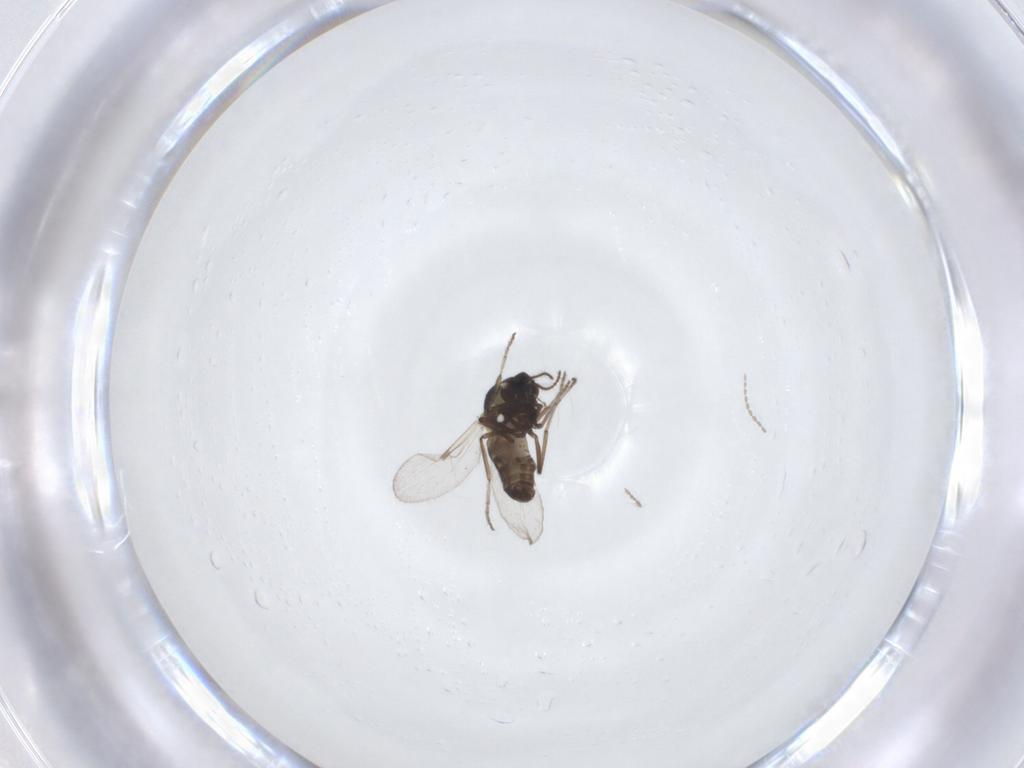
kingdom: Animalia
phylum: Arthropoda
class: Insecta
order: Diptera
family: Ceratopogonidae
